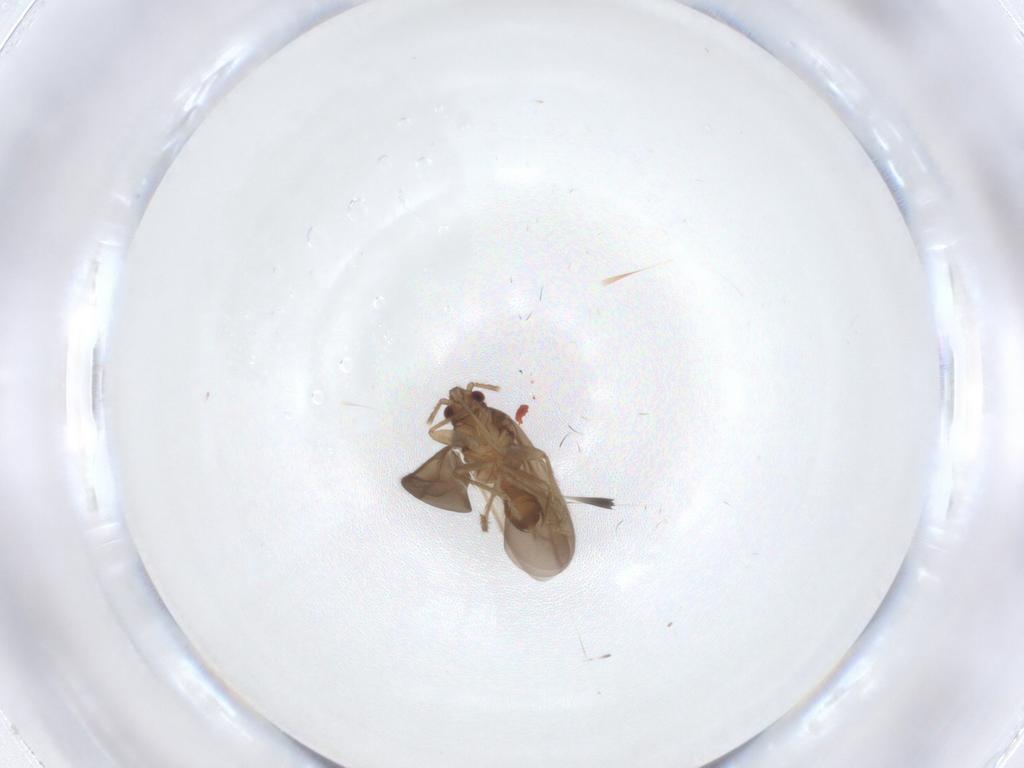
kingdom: Animalia
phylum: Arthropoda
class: Insecta
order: Hemiptera
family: Ceratocombidae
